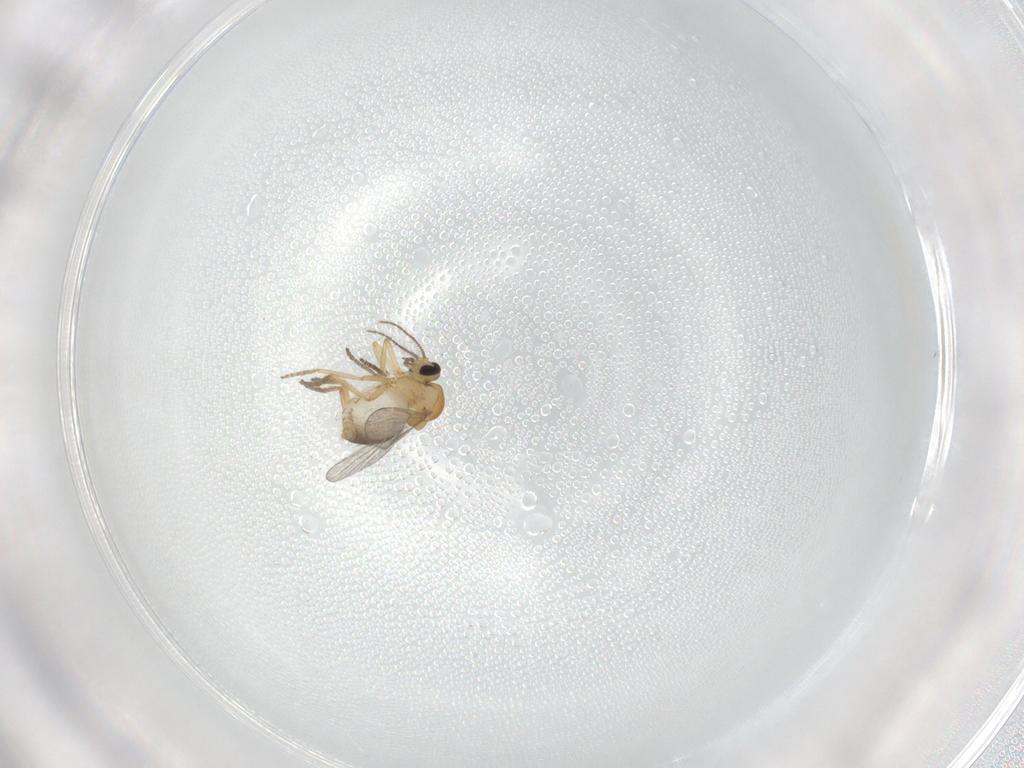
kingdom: Animalia
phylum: Arthropoda
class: Insecta
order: Diptera
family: Ceratopogonidae
